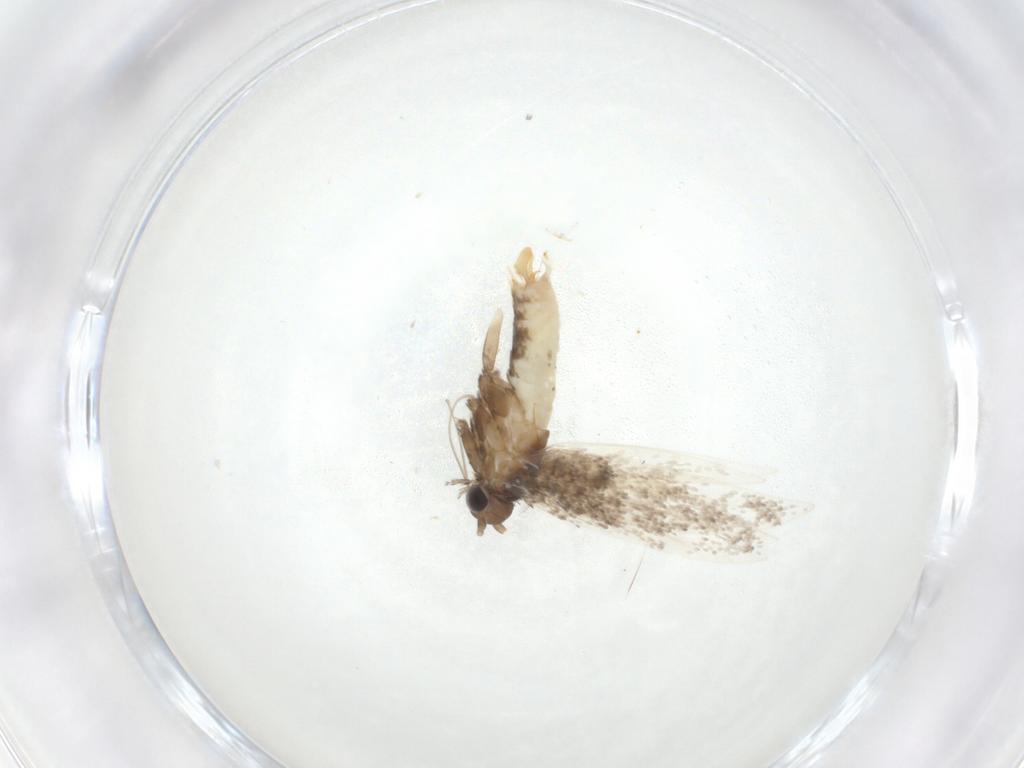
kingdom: Animalia
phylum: Arthropoda
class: Insecta
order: Lepidoptera
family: Gracillariidae
